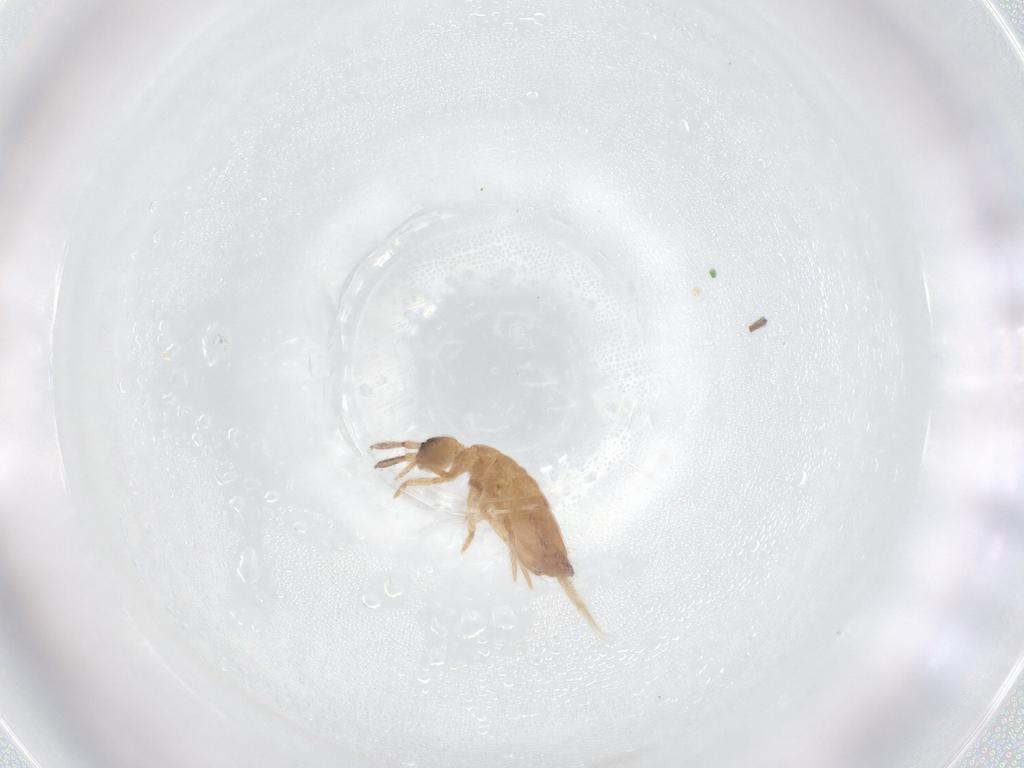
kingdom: Animalia
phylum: Arthropoda
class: Collembola
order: Entomobryomorpha
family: Entomobryidae
